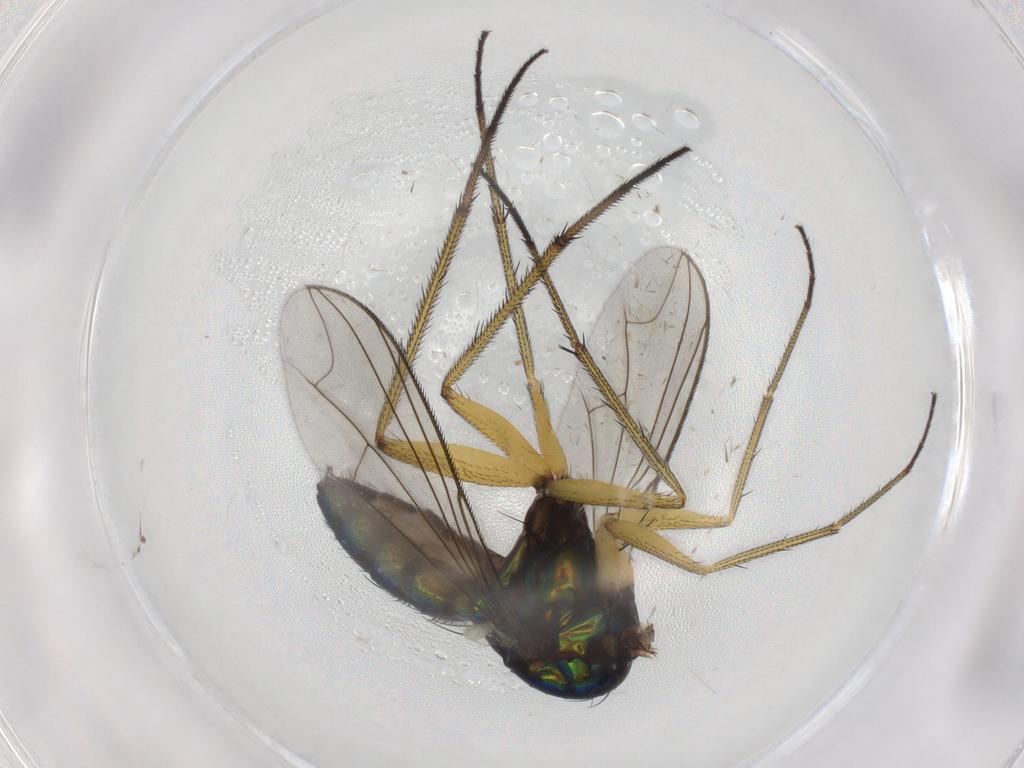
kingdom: Animalia
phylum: Arthropoda
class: Insecta
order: Diptera
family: Dolichopodidae
